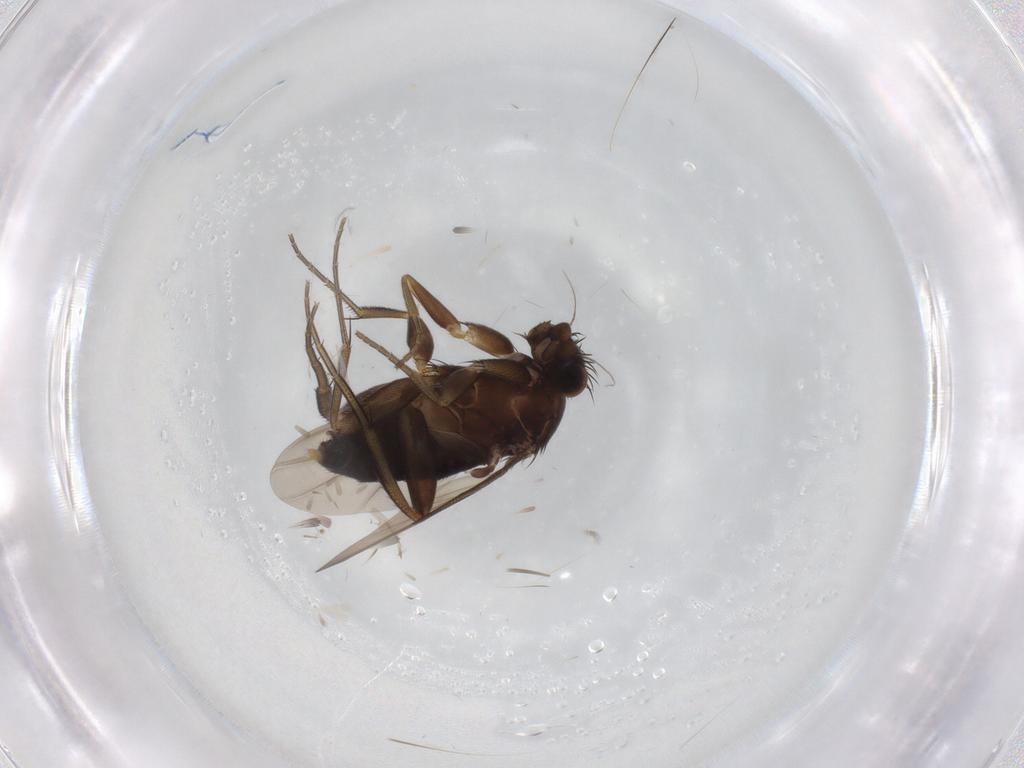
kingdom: Animalia
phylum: Arthropoda
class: Insecta
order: Diptera
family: Phoridae
